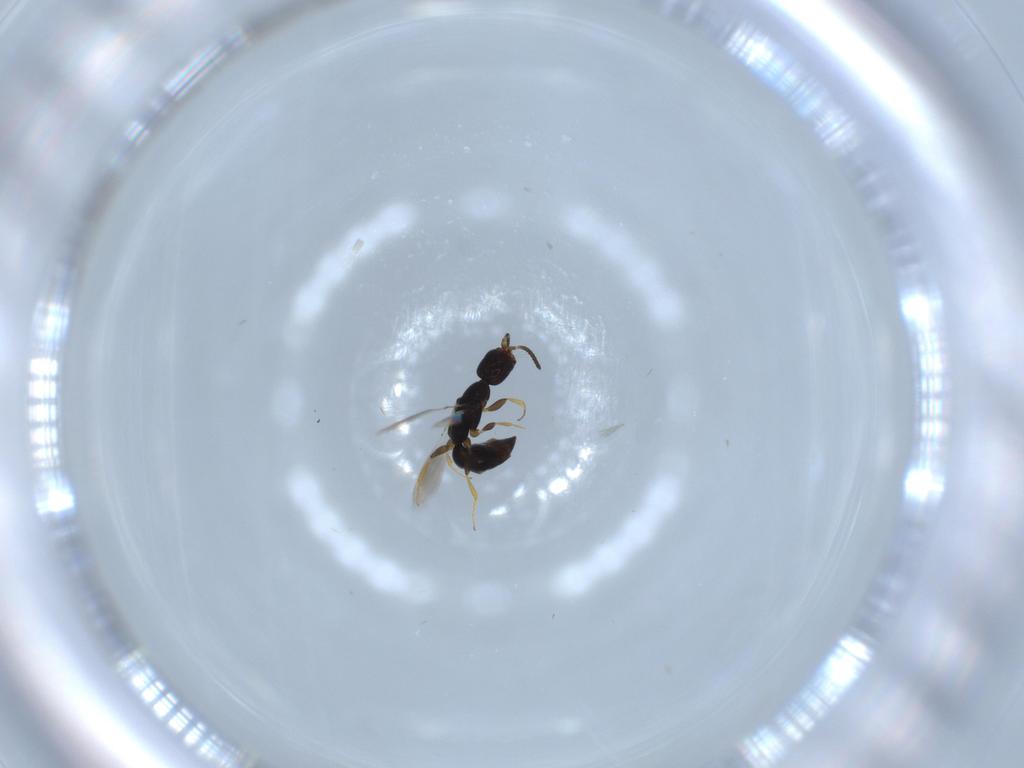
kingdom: Animalia
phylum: Arthropoda
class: Insecta
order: Hymenoptera
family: Bethylidae
